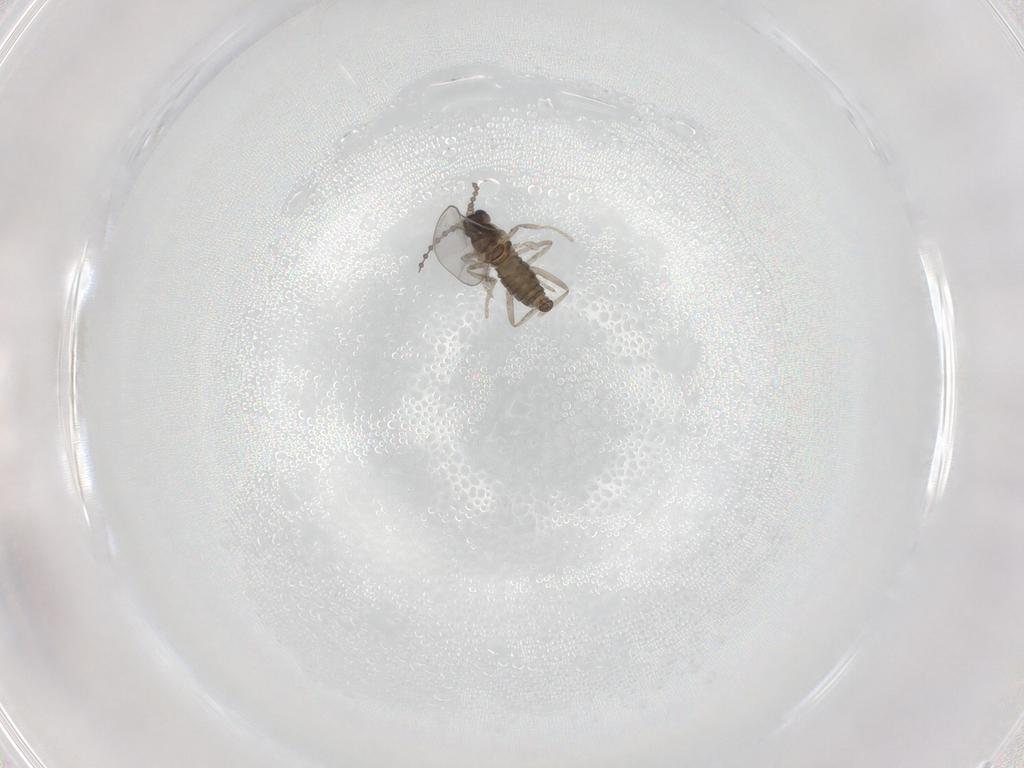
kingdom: Animalia
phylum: Arthropoda
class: Insecta
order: Diptera
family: Cecidomyiidae
